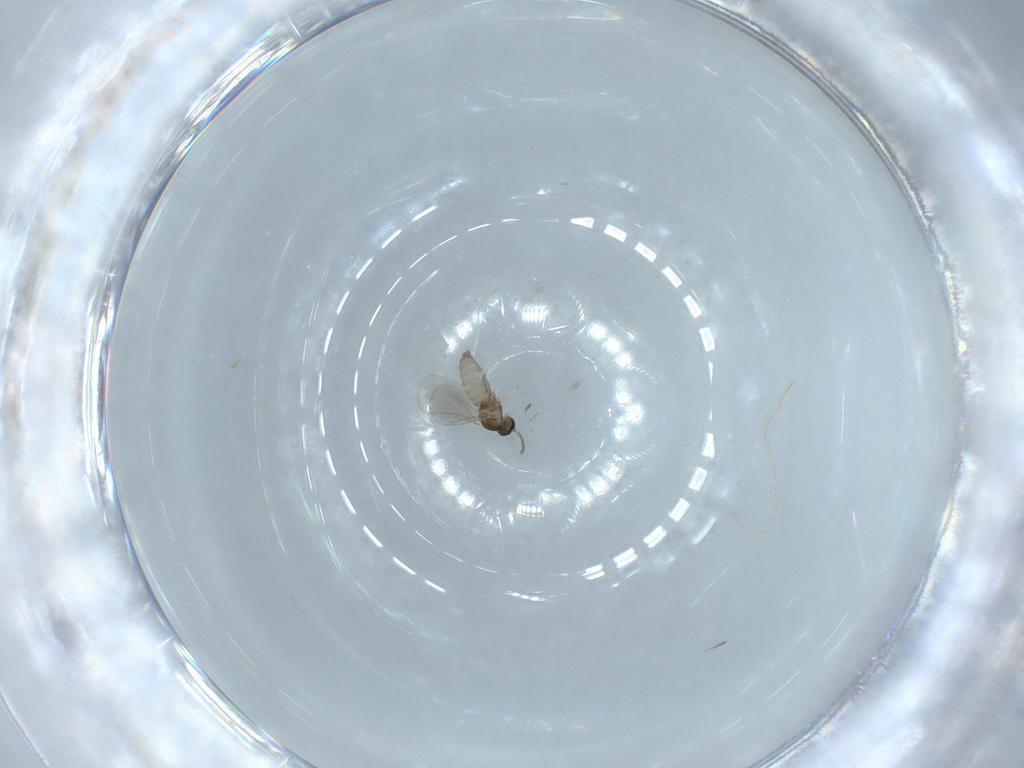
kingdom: Animalia
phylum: Arthropoda
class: Insecta
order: Diptera
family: Cecidomyiidae
